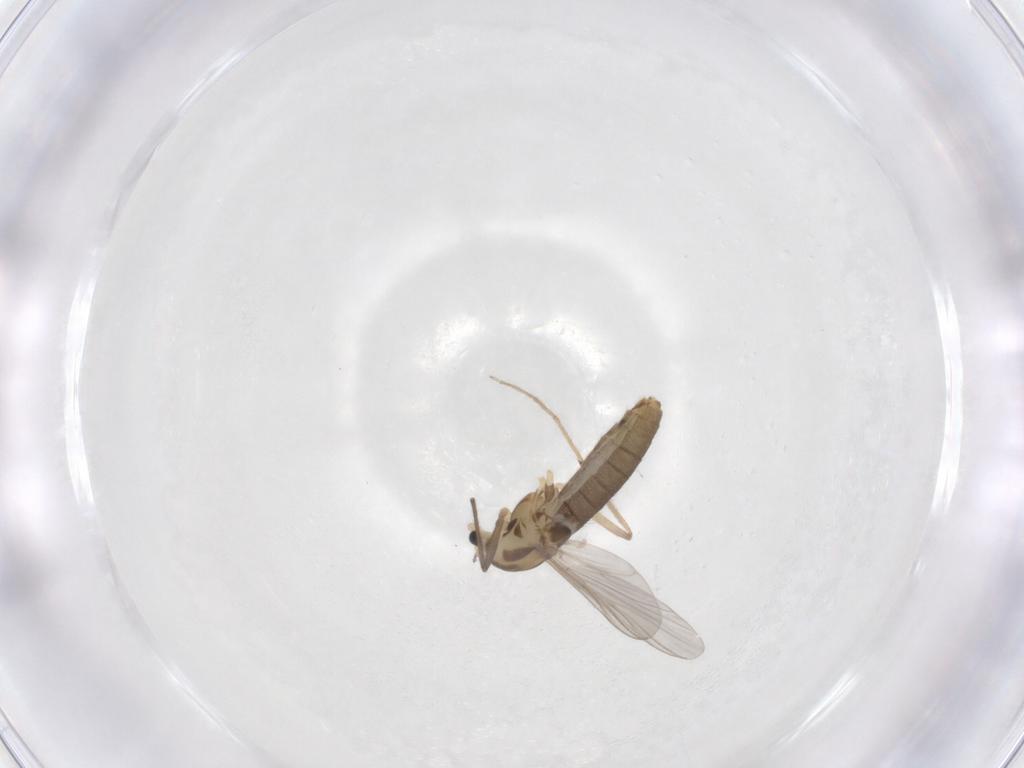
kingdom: Animalia
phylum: Arthropoda
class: Insecta
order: Diptera
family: Chironomidae
